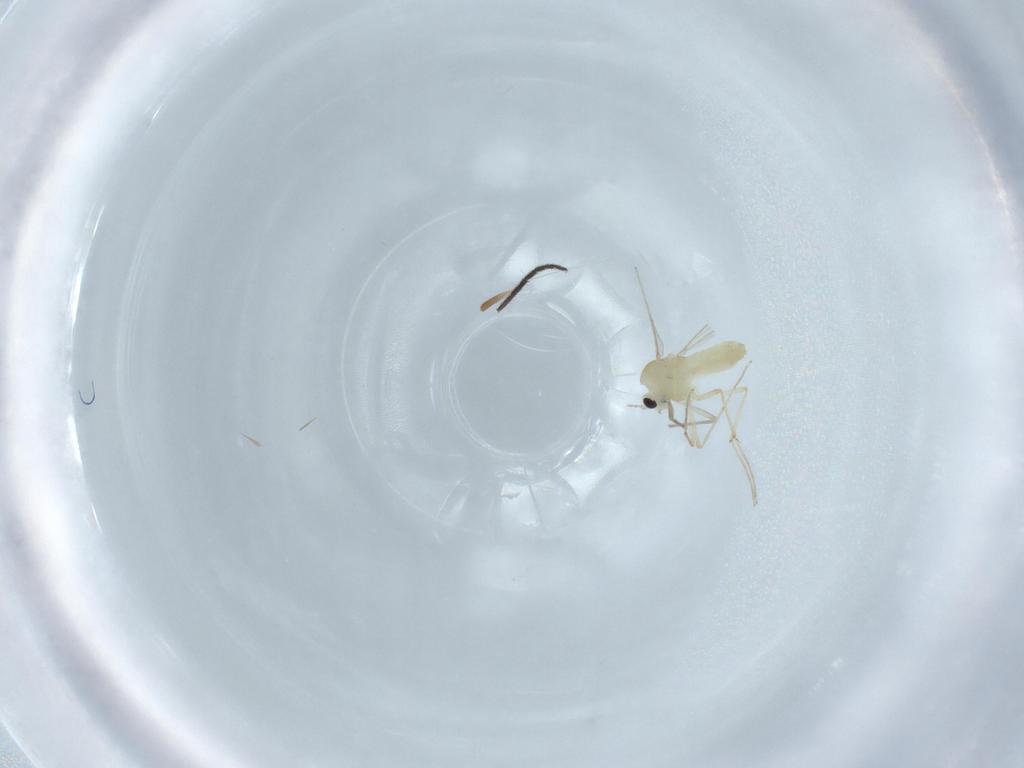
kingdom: Animalia
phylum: Arthropoda
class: Insecta
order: Diptera
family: Chironomidae
